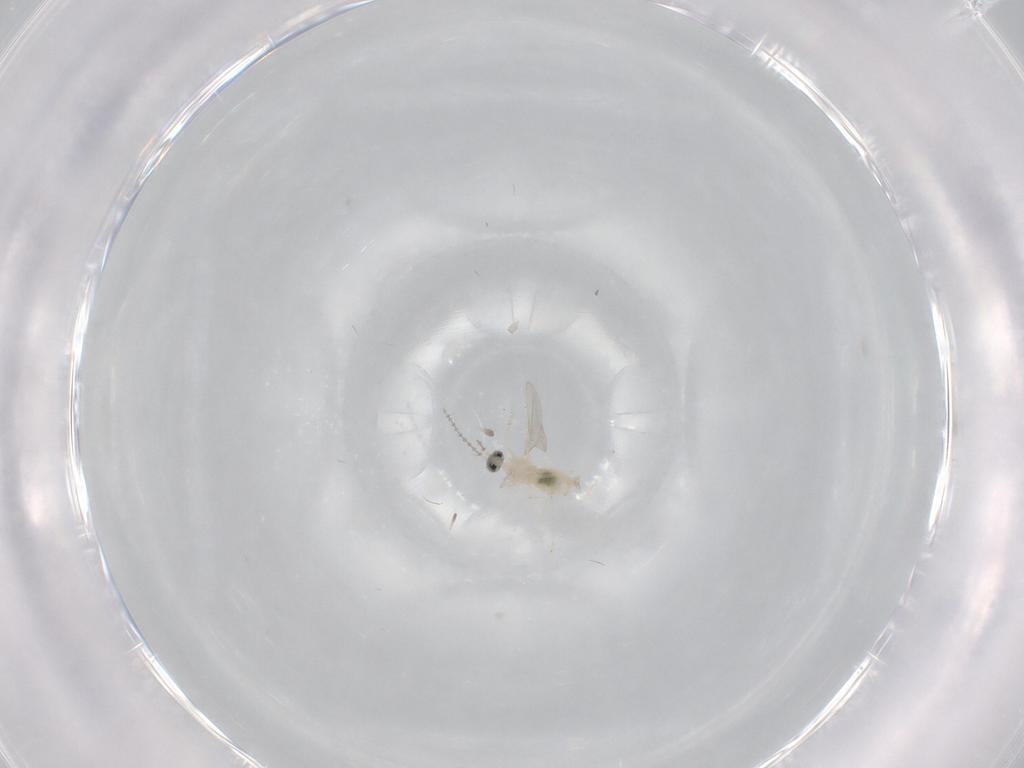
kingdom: Animalia
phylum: Arthropoda
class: Insecta
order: Diptera
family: Cecidomyiidae
